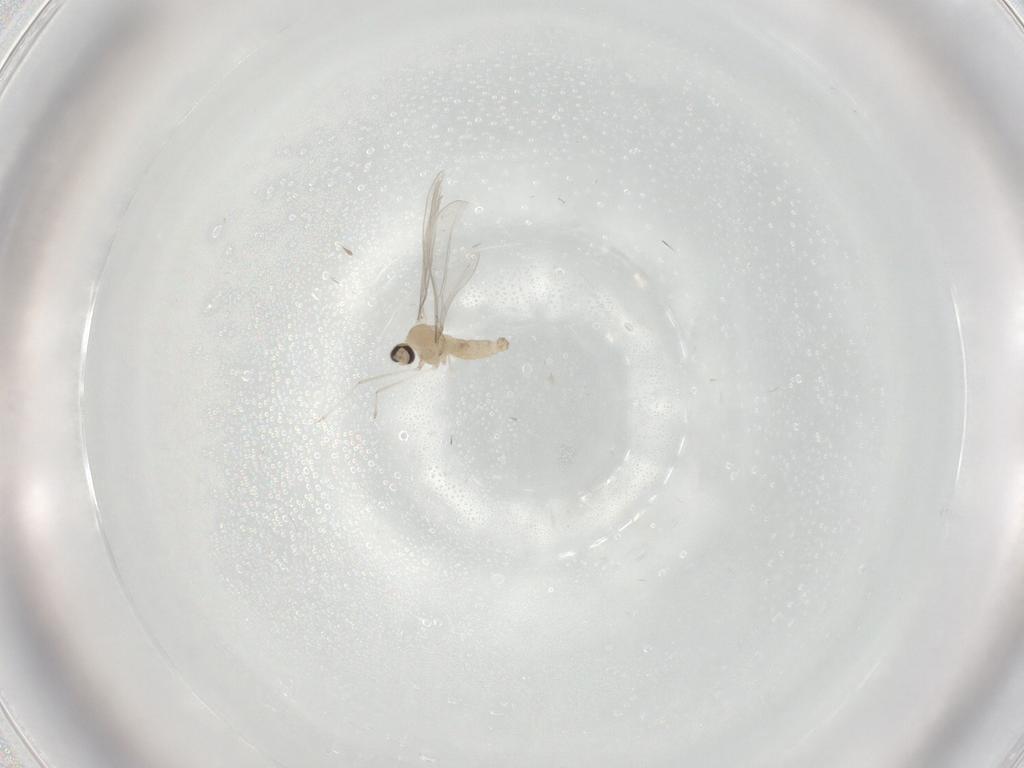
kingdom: Animalia
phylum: Arthropoda
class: Insecta
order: Diptera
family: Cecidomyiidae
